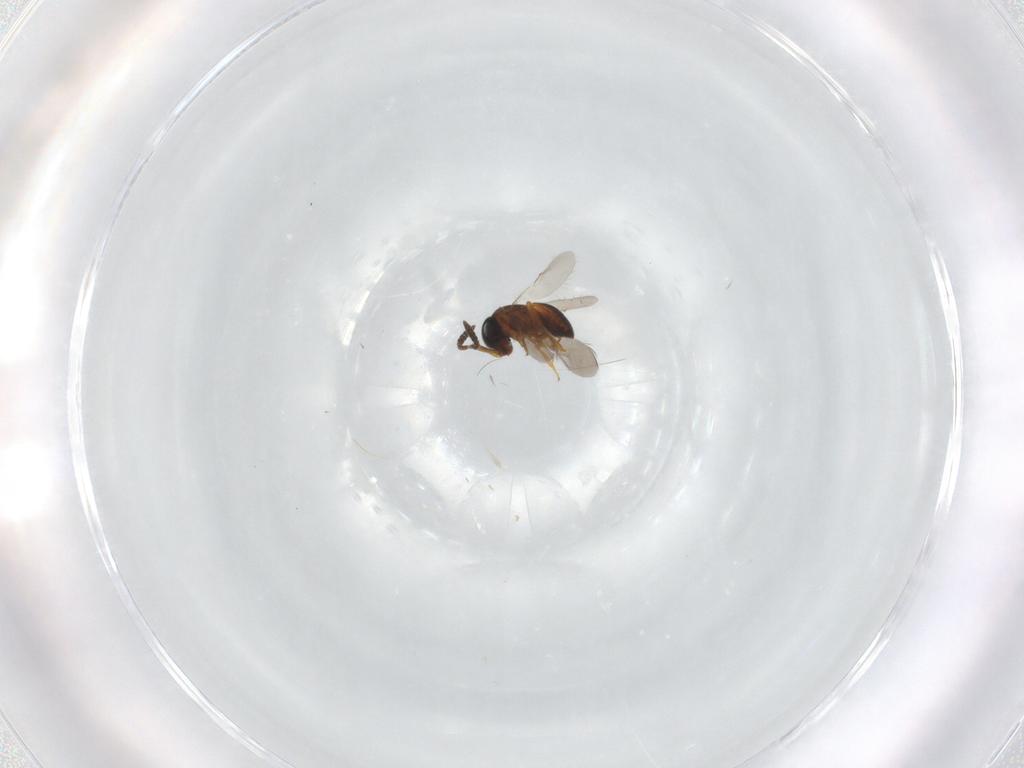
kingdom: Animalia
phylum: Arthropoda
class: Insecta
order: Hymenoptera
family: Scelionidae
